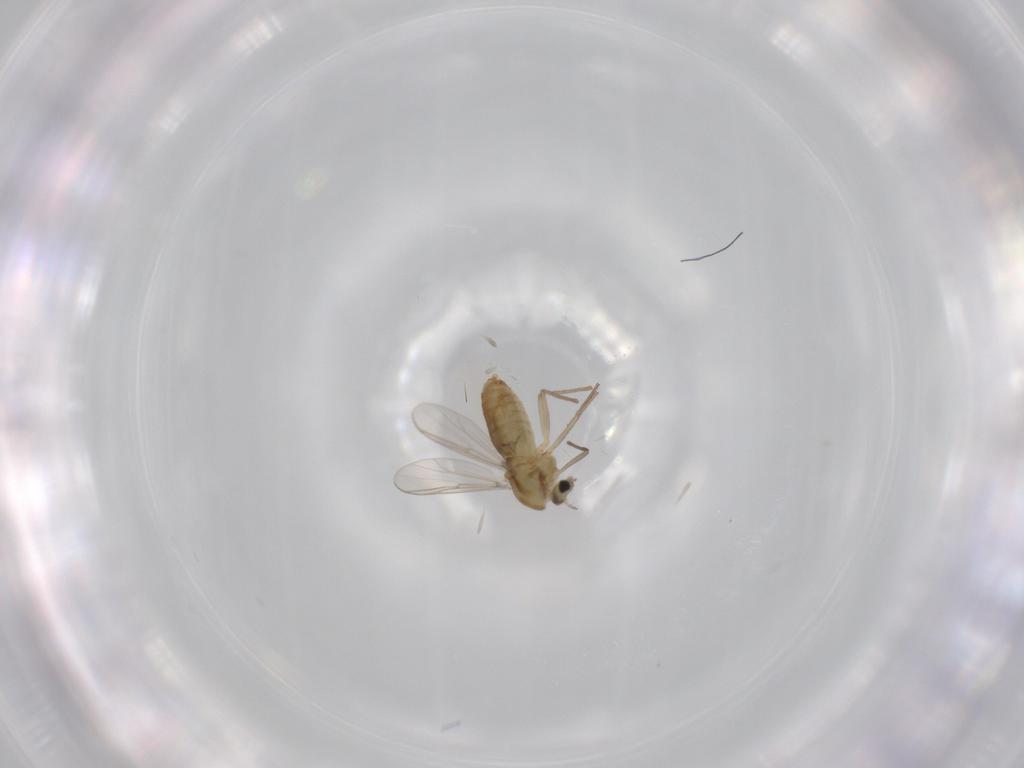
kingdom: Animalia
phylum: Arthropoda
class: Insecta
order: Diptera
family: Chironomidae
